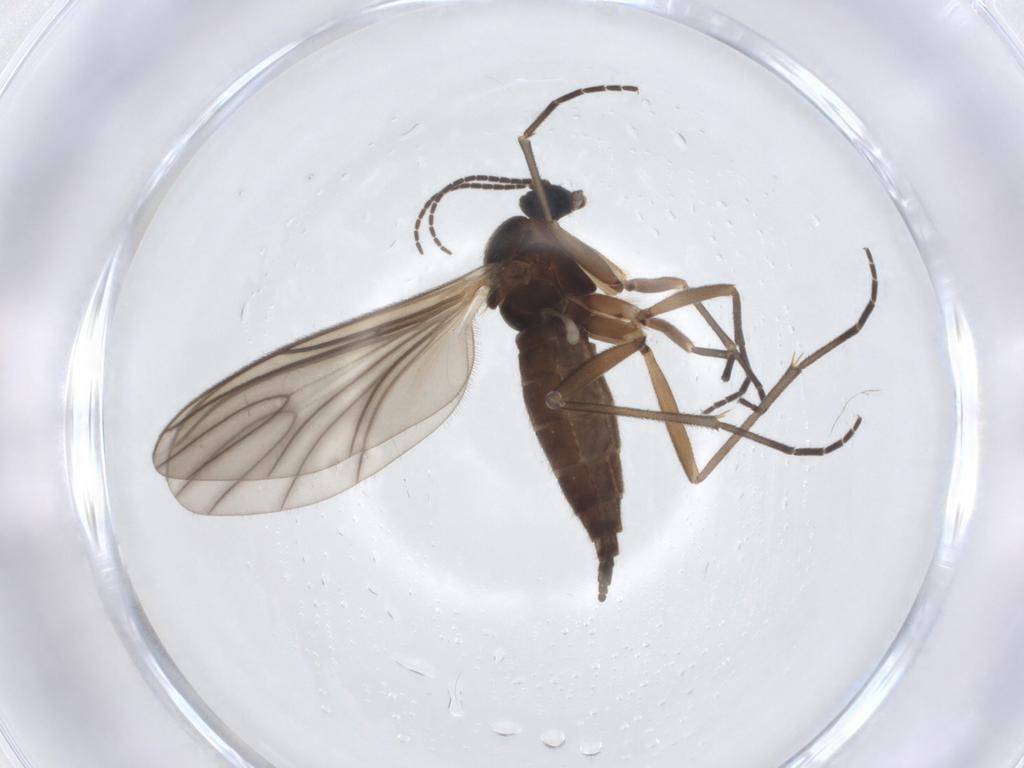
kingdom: Animalia
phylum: Arthropoda
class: Insecta
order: Diptera
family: Sciaridae
